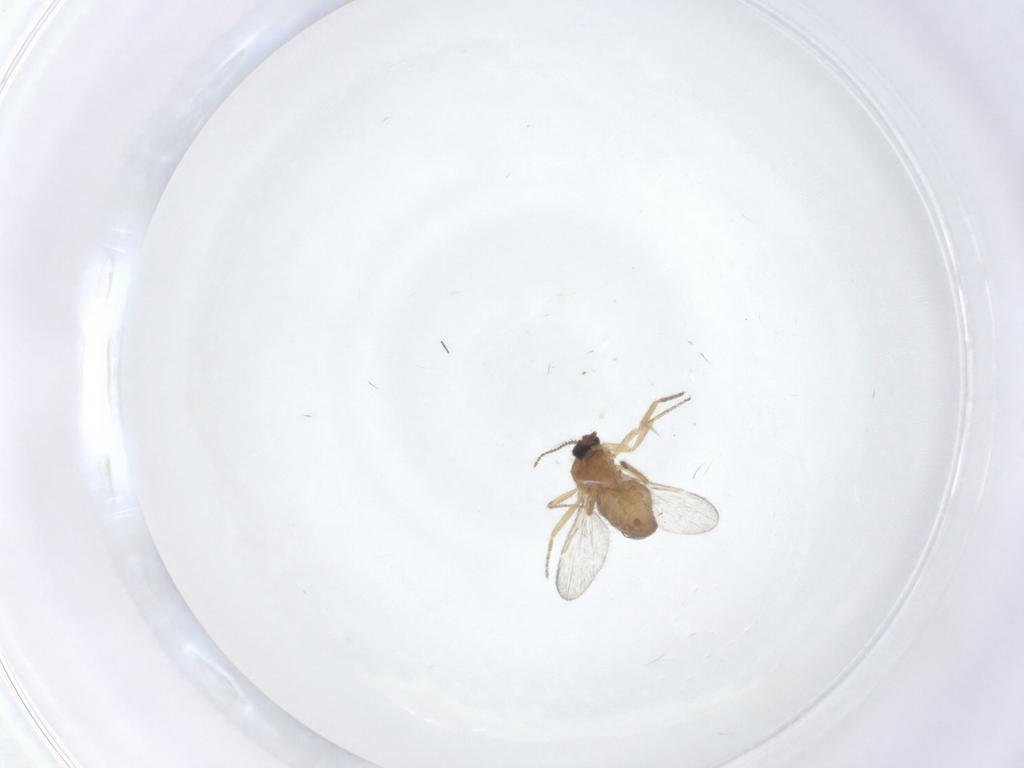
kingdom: Animalia
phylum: Arthropoda
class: Insecta
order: Diptera
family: Ceratopogonidae
